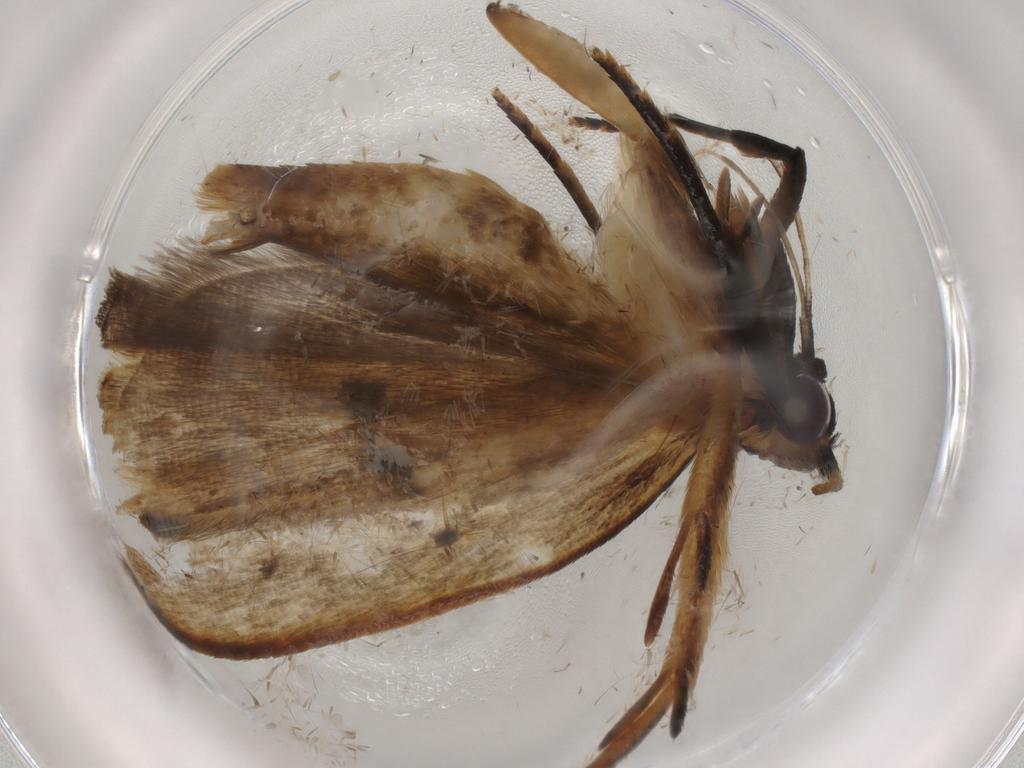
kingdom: Animalia
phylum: Arthropoda
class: Insecta
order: Lepidoptera
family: Gelechiidae
